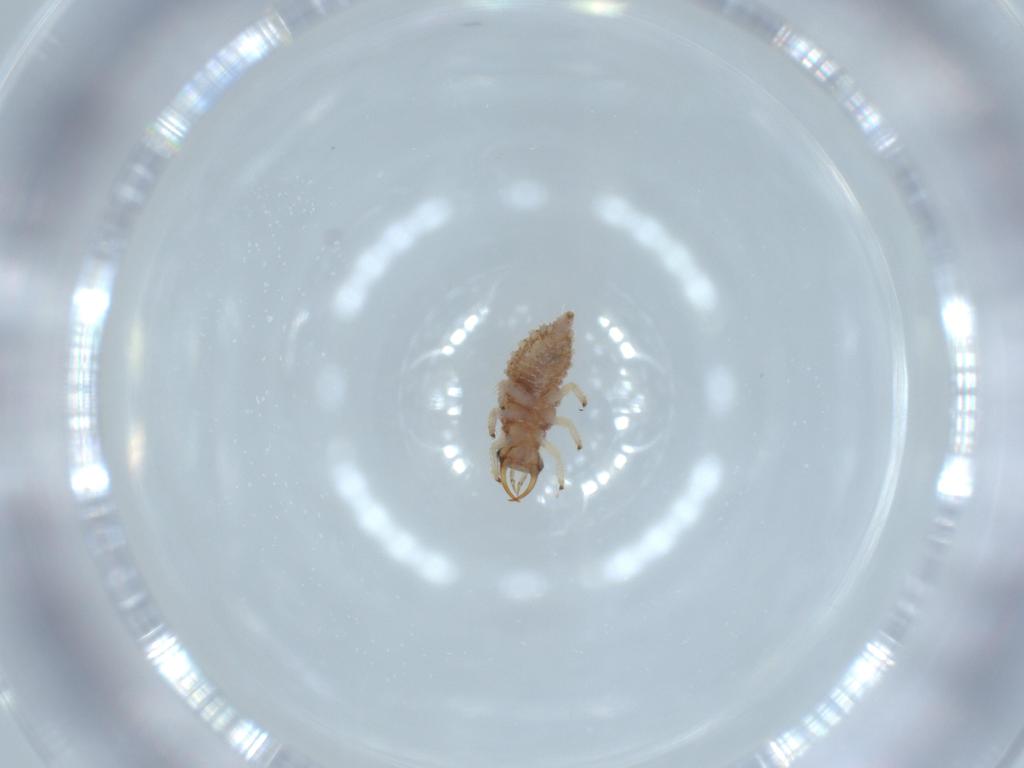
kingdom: Animalia
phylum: Arthropoda
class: Insecta
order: Neuroptera
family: Chrysopidae
